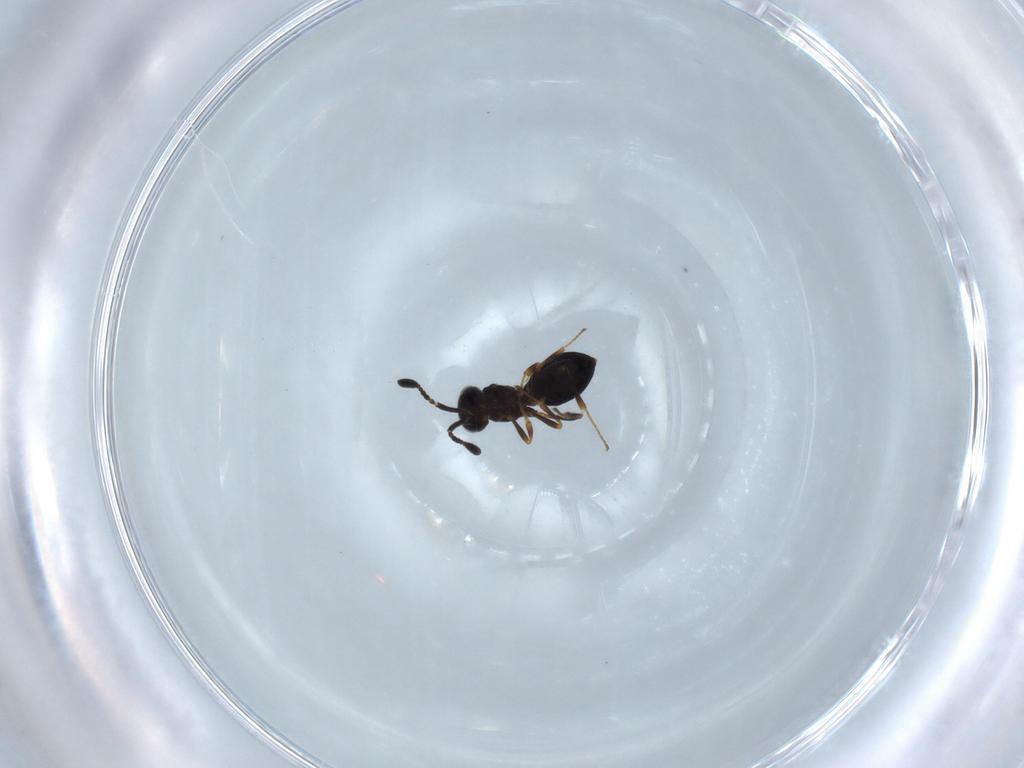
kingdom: Animalia
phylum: Arthropoda
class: Insecta
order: Hymenoptera
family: Scelionidae
